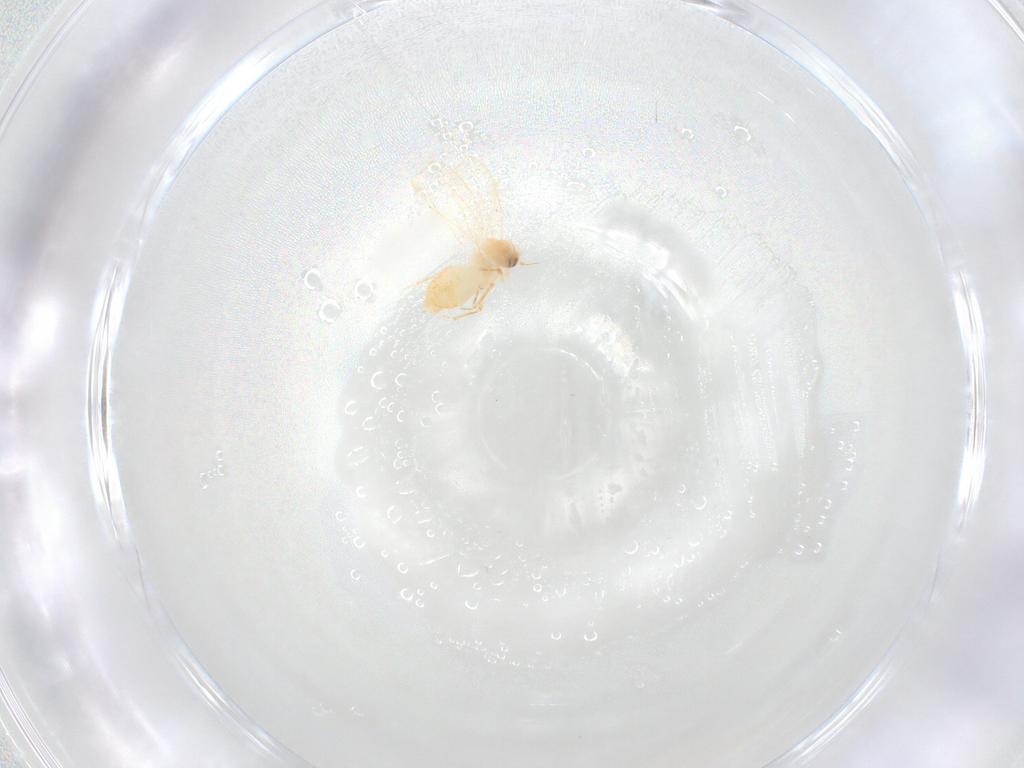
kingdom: Animalia
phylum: Arthropoda
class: Insecta
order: Hemiptera
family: Aleyrodidae
